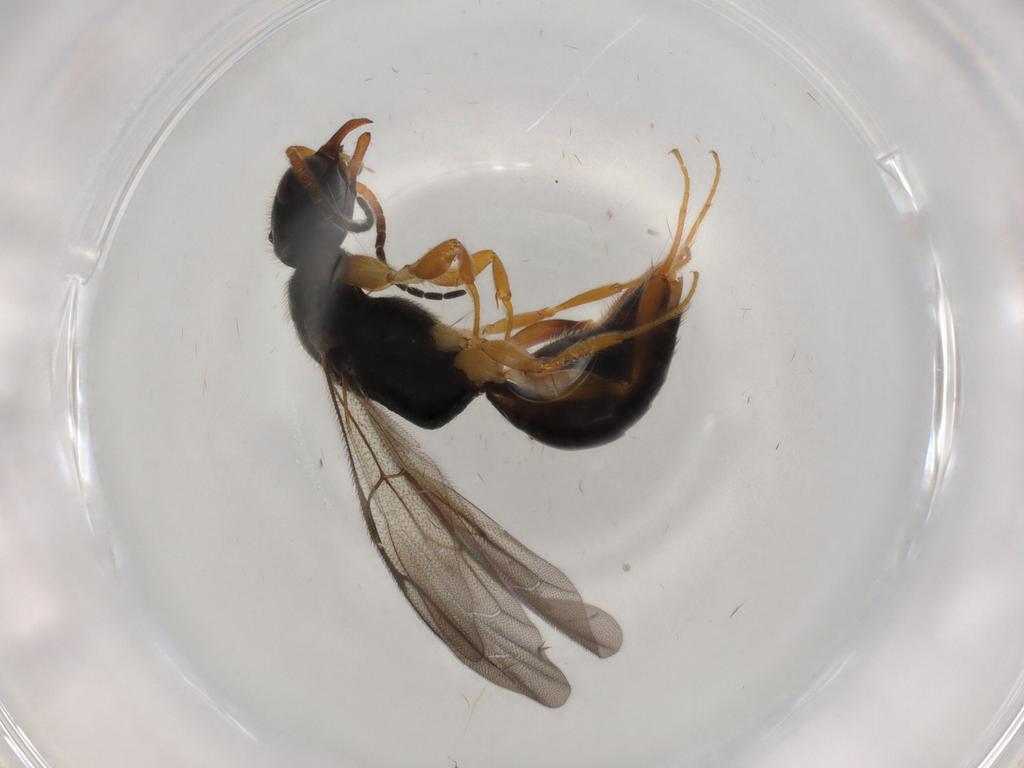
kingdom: Animalia
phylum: Arthropoda
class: Insecta
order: Hymenoptera
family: Bethylidae
